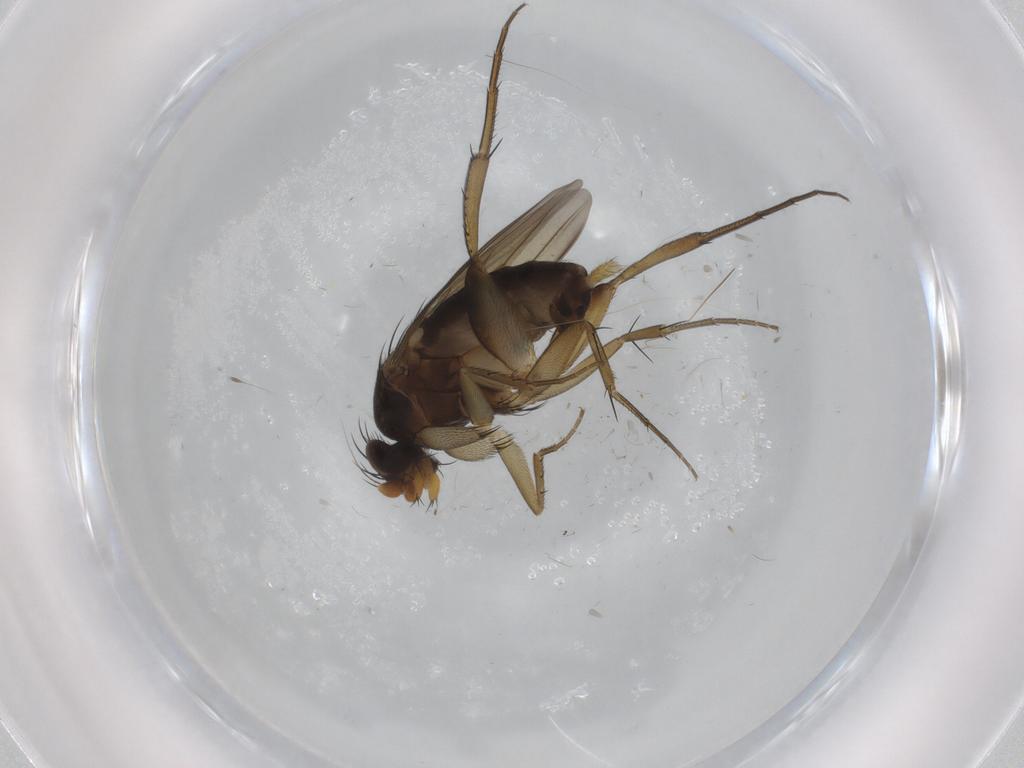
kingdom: Animalia
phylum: Arthropoda
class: Insecta
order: Diptera
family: Phoridae
